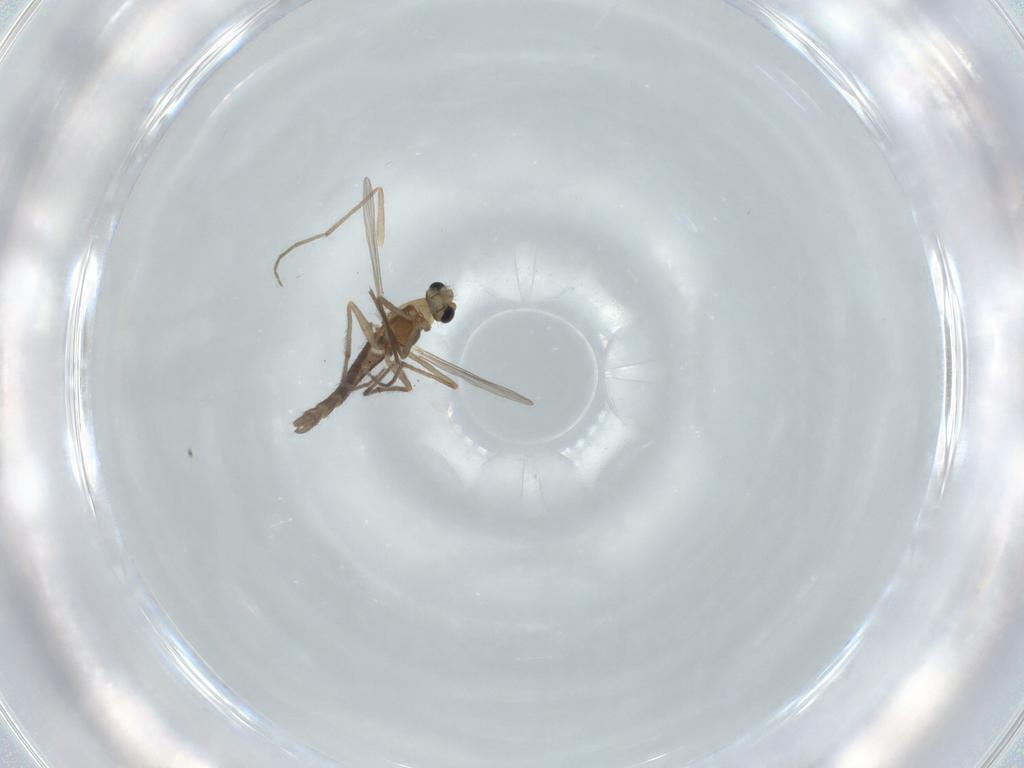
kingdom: Animalia
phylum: Arthropoda
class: Insecta
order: Diptera
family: Chironomidae
